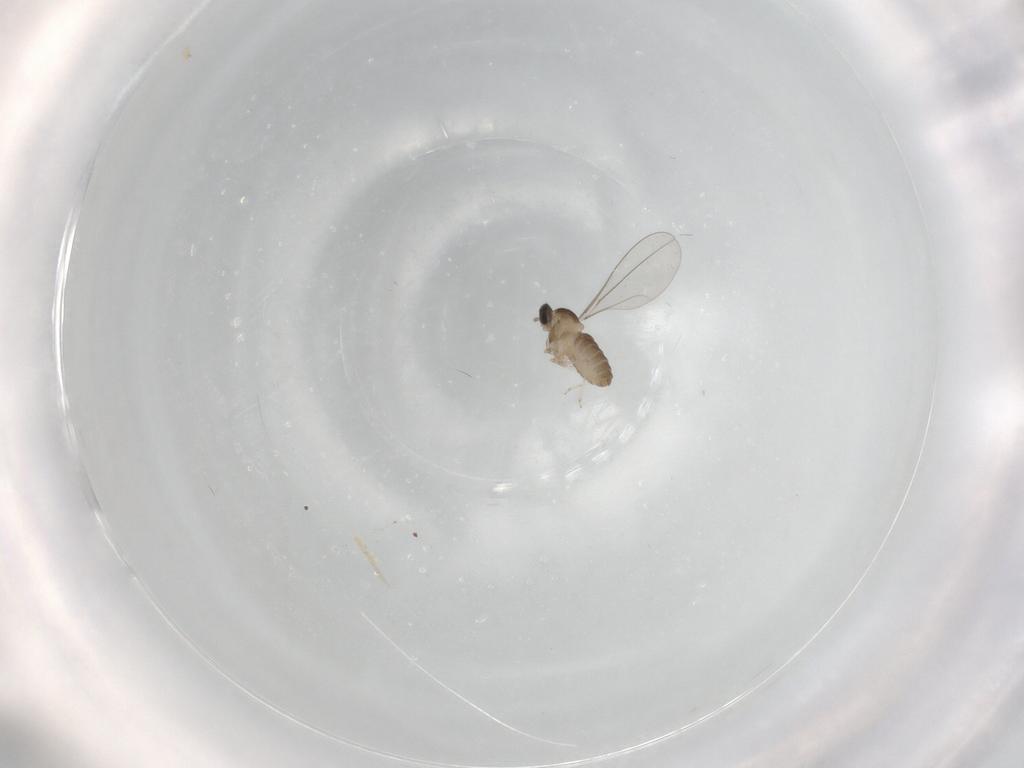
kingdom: Animalia
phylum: Arthropoda
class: Insecta
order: Diptera
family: Cecidomyiidae
